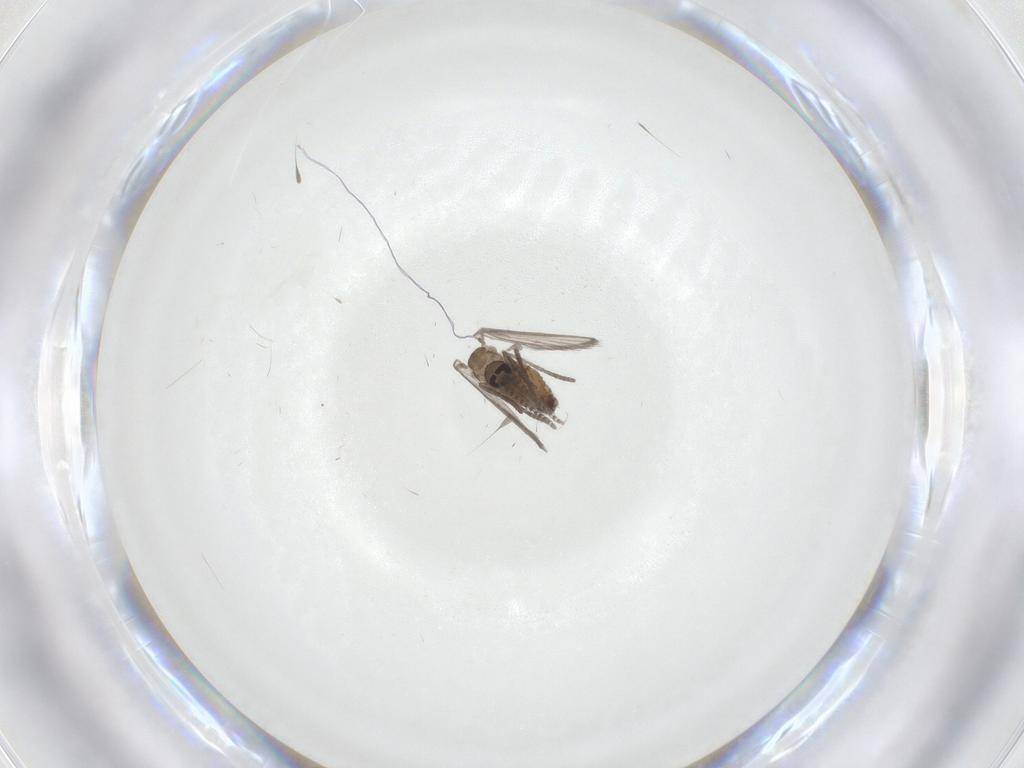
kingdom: Animalia
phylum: Arthropoda
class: Insecta
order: Diptera
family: Psychodidae
